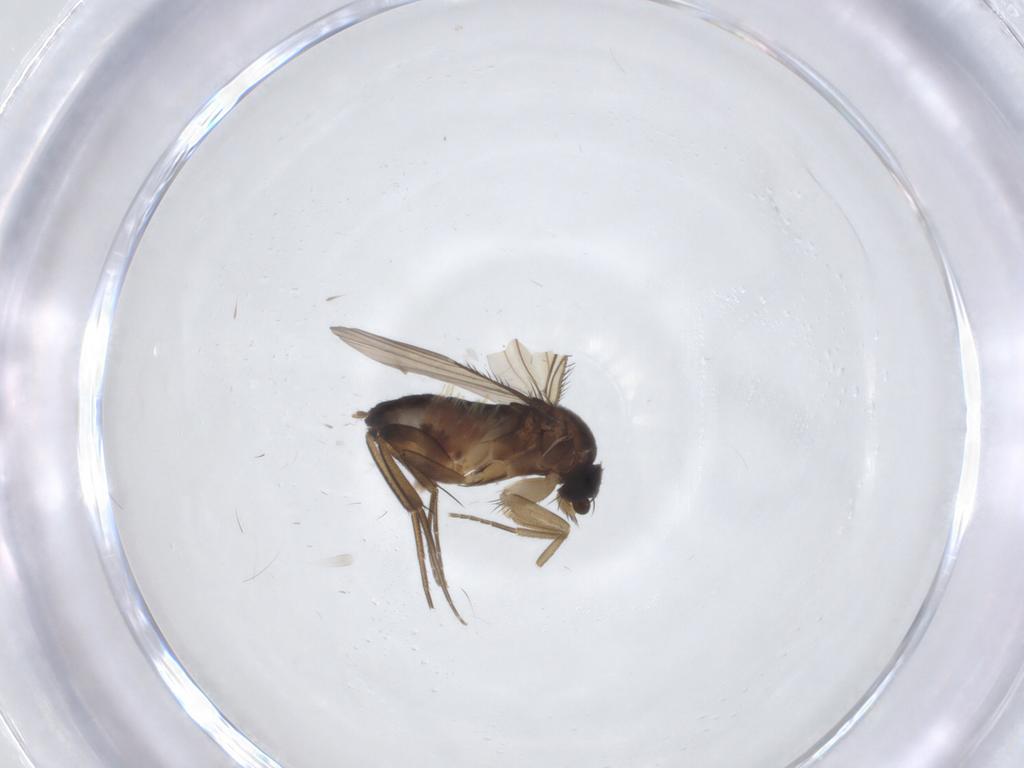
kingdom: Animalia
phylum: Arthropoda
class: Insecta
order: Diptera
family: Phoridae
